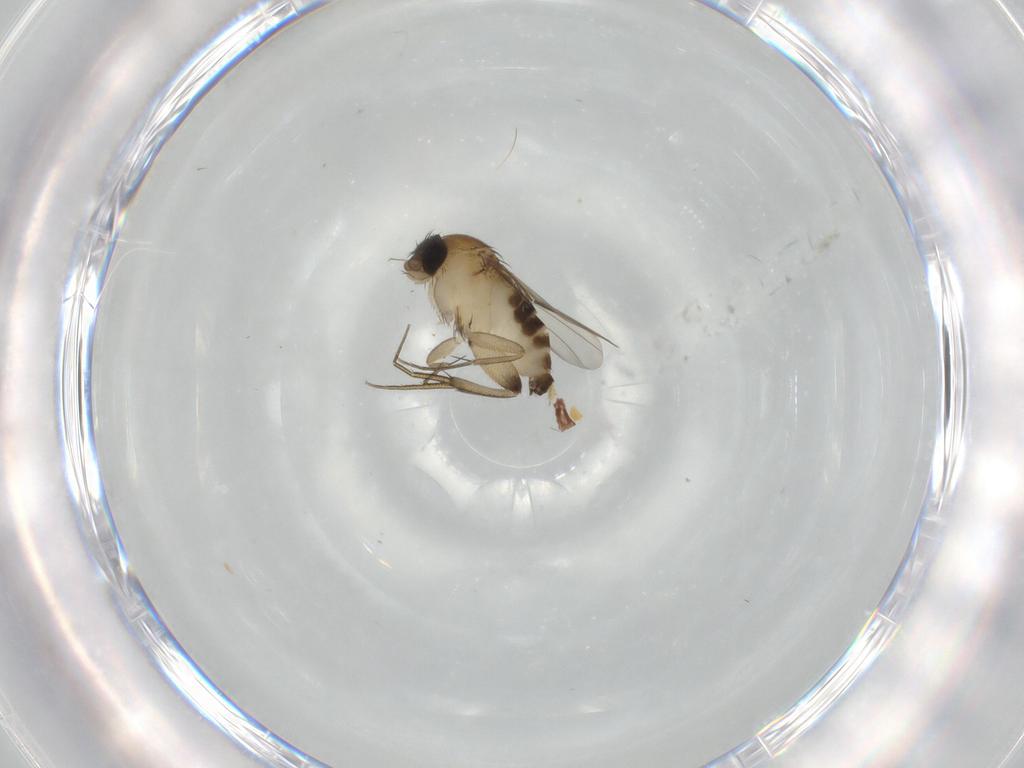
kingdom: Animalia
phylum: Arthropoda
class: Insecta
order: Diptera
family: Phoridae
